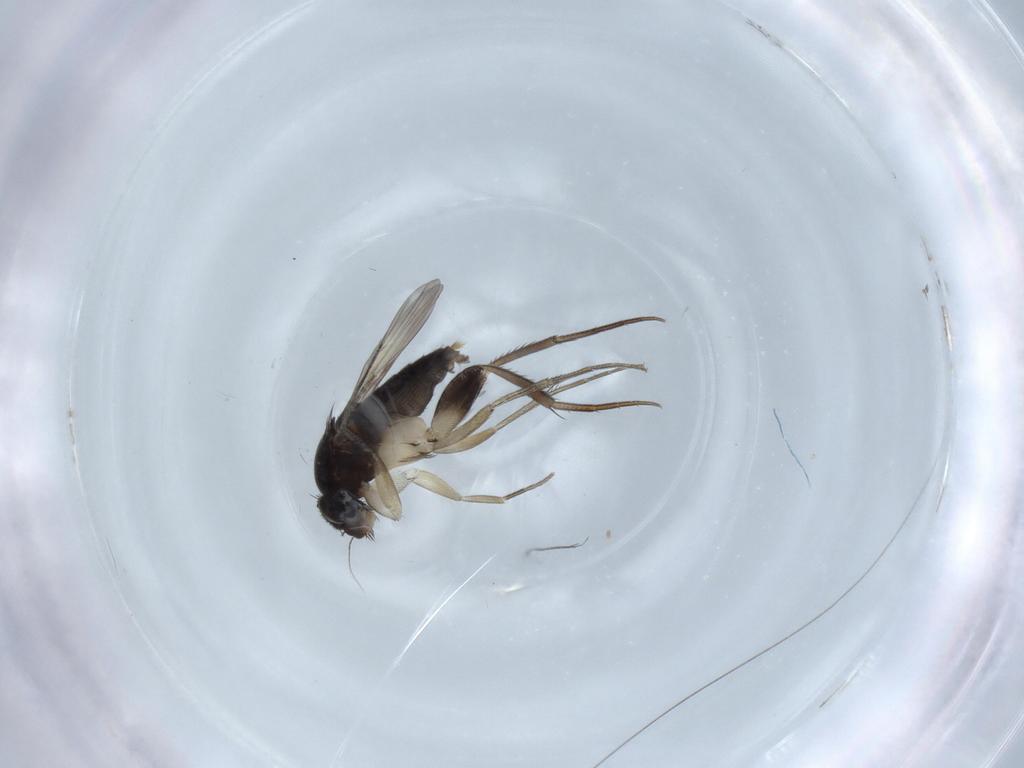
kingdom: Animalia
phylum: Arthropoda
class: Insecta
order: Diptera
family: Phoridae
